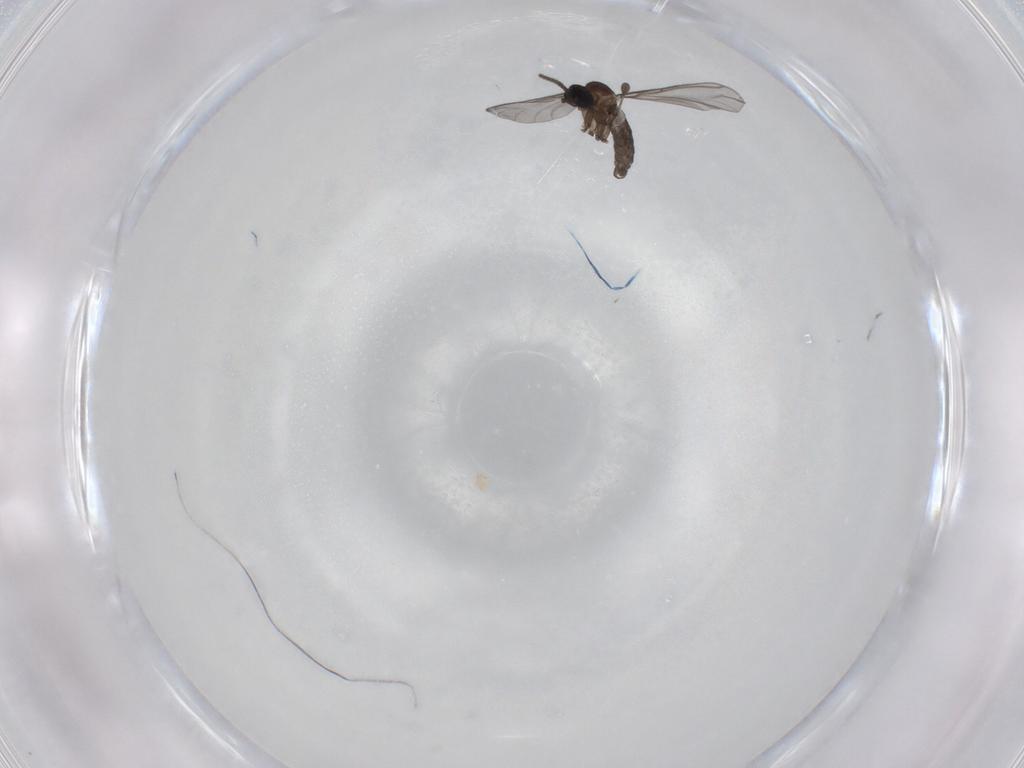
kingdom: Animalia
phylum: Arthropoda
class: Insecta
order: Diptera
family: Sciaridae
